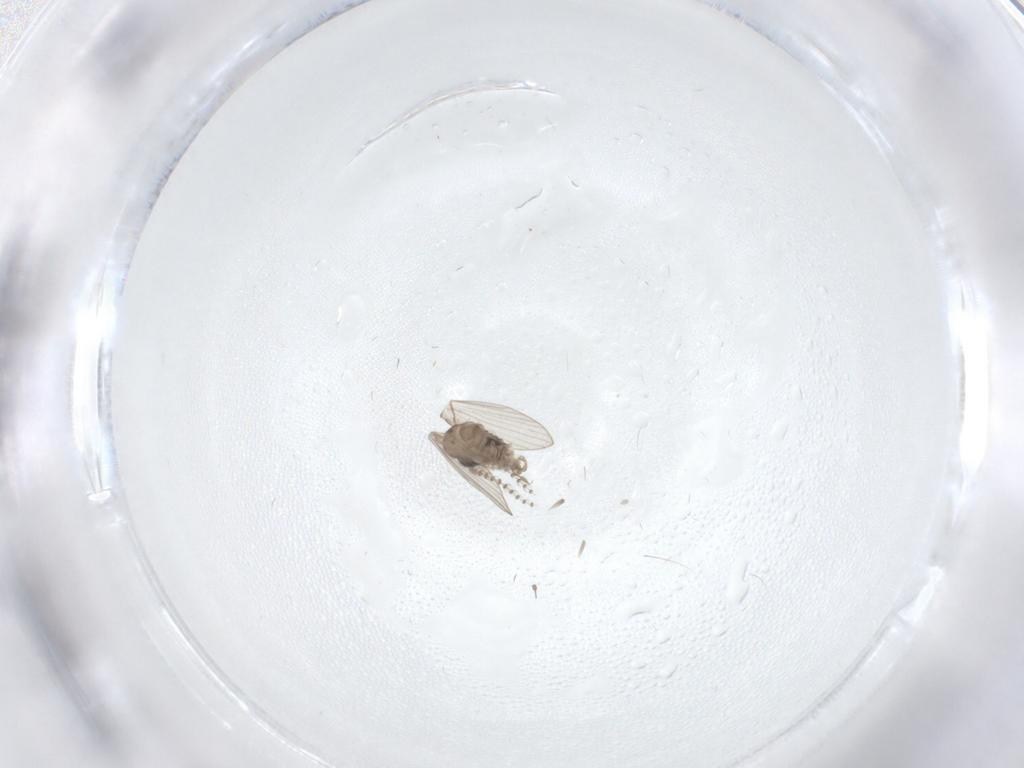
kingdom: Animalia
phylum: Arthropoda
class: Insecta
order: Diptera
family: Psychodidae
